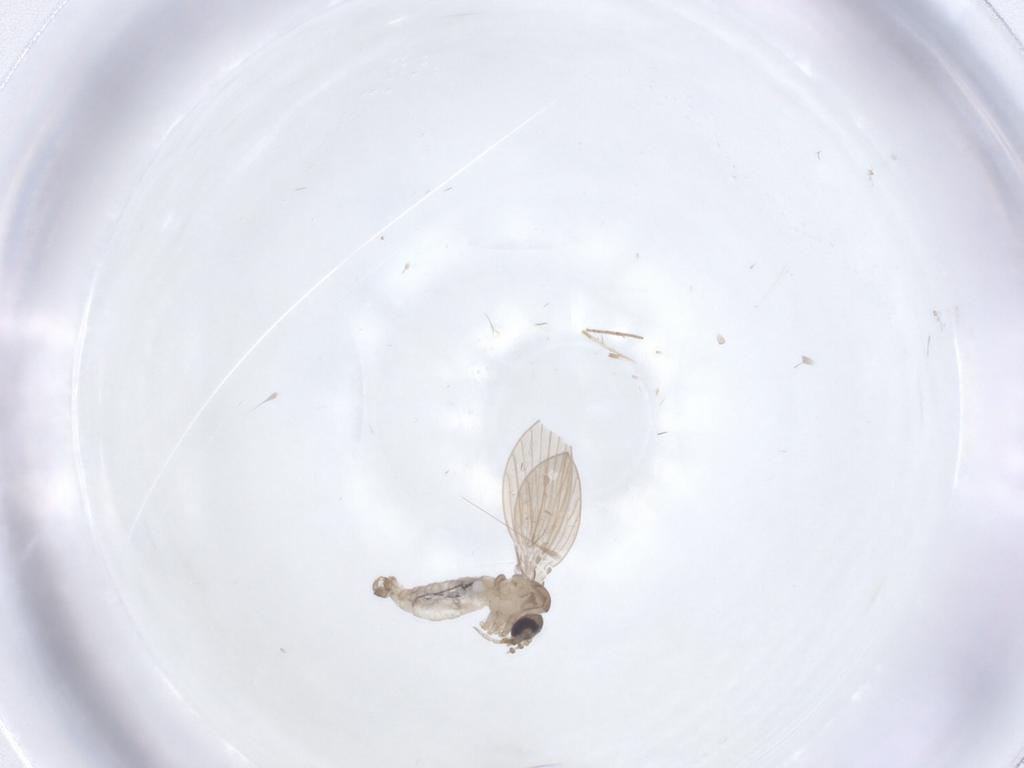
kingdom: Animalia
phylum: Arthropoda
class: Insecta
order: Diptera
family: Psychodidae
